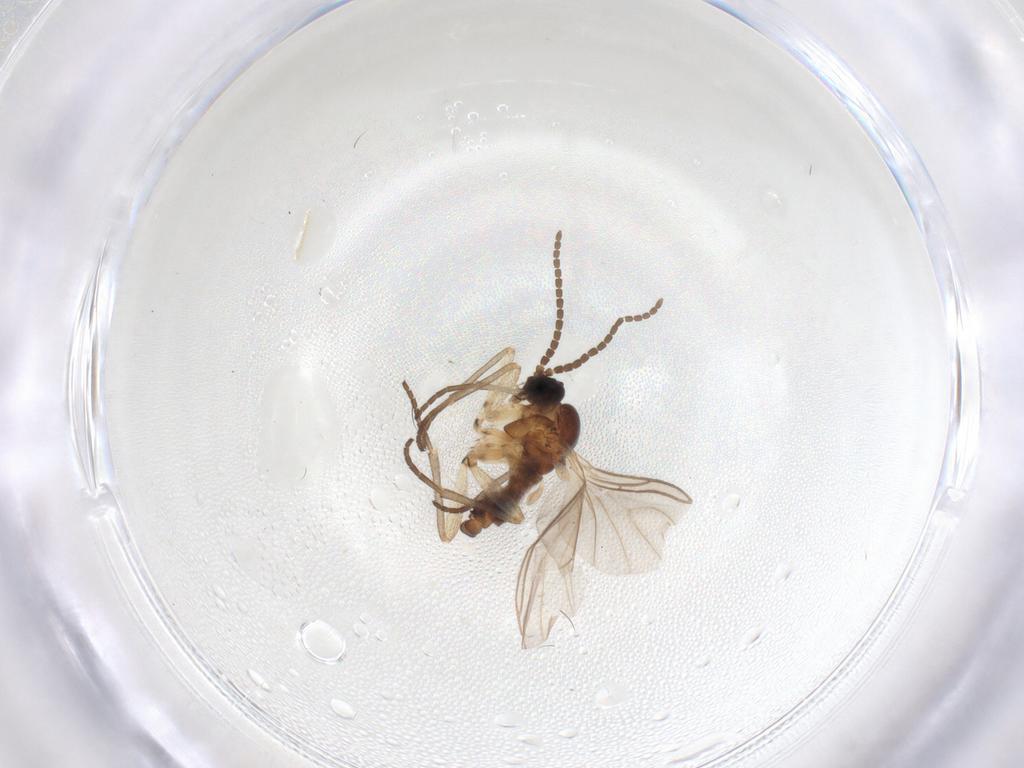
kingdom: Animalia
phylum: Arthropoda
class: Insecta
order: Diptera
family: Sciaridae
